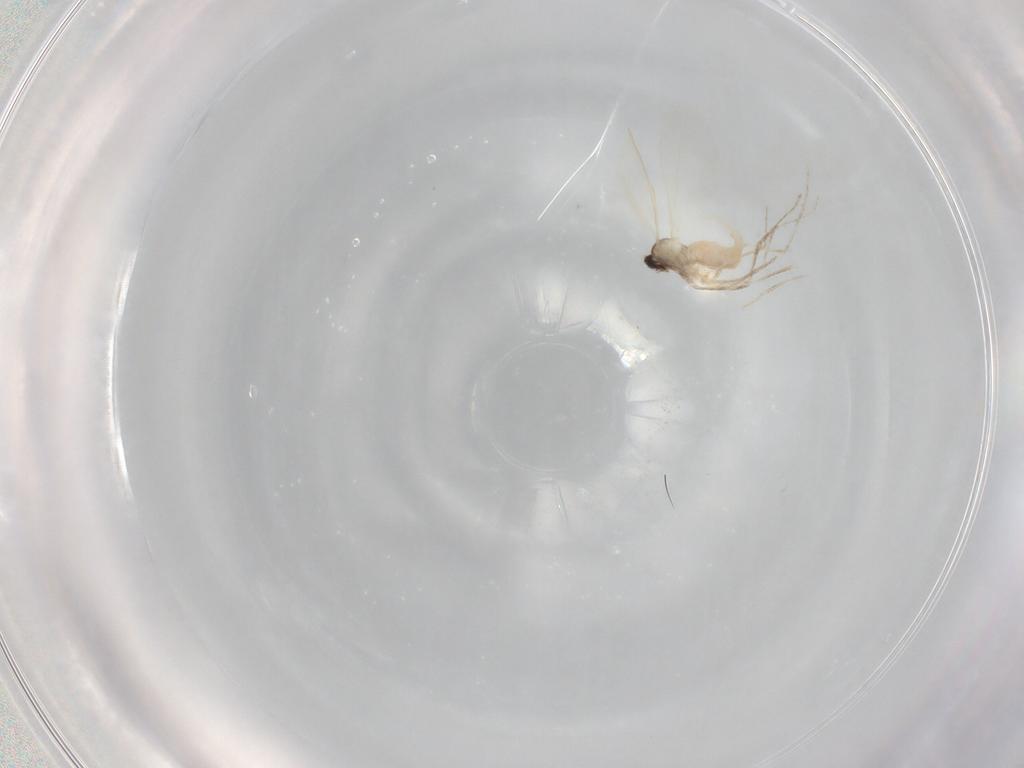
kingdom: Animalia
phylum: Arthropoda
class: Insecta
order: Diptera
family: Cecidomyiidae
